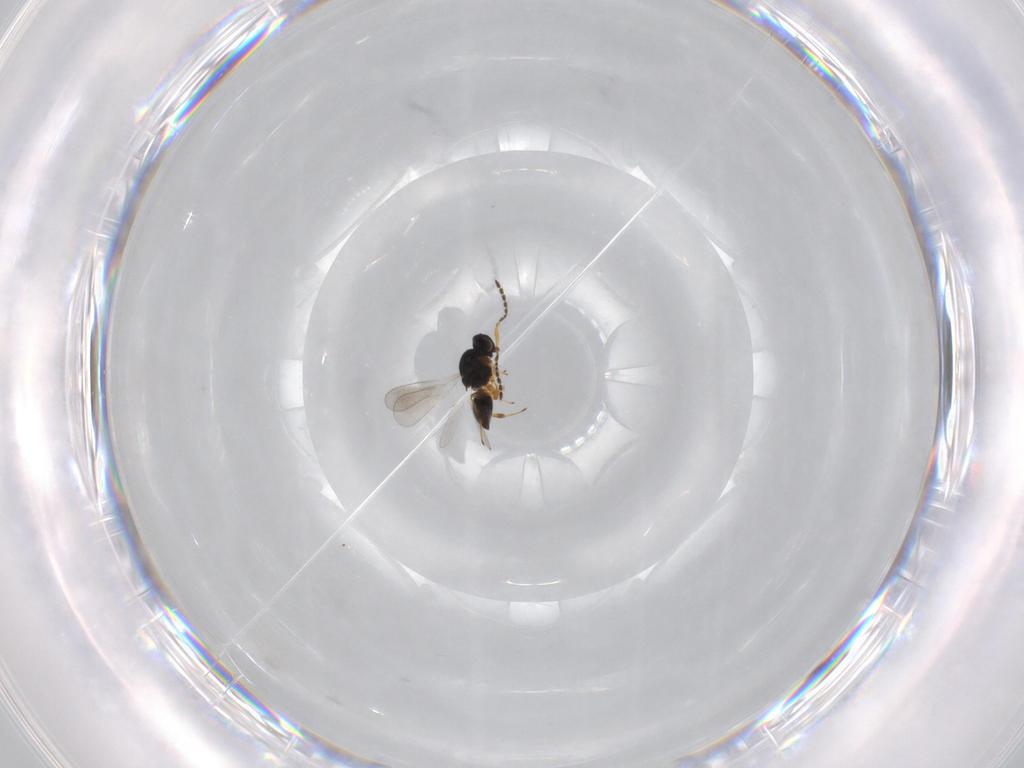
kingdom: Animalia
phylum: Arthropoda
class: Insecta
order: Hymenoptera
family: Platygastridae
